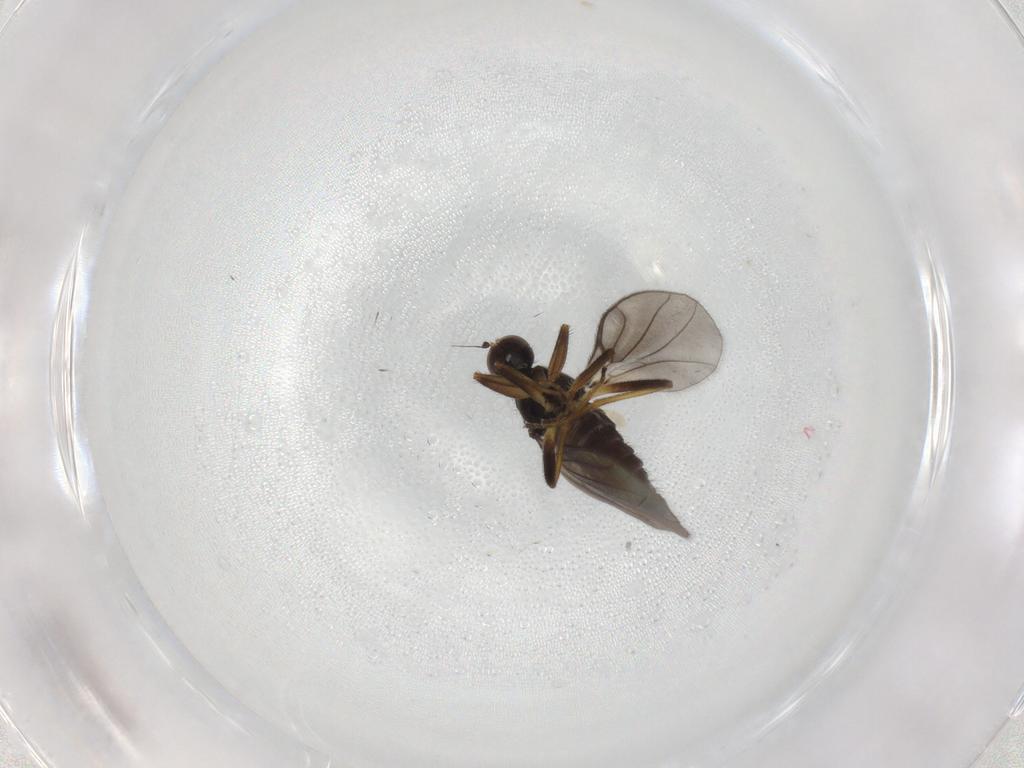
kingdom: Animalia
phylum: Arthropoda
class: Insecta
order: Diptera
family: Hybotidae
